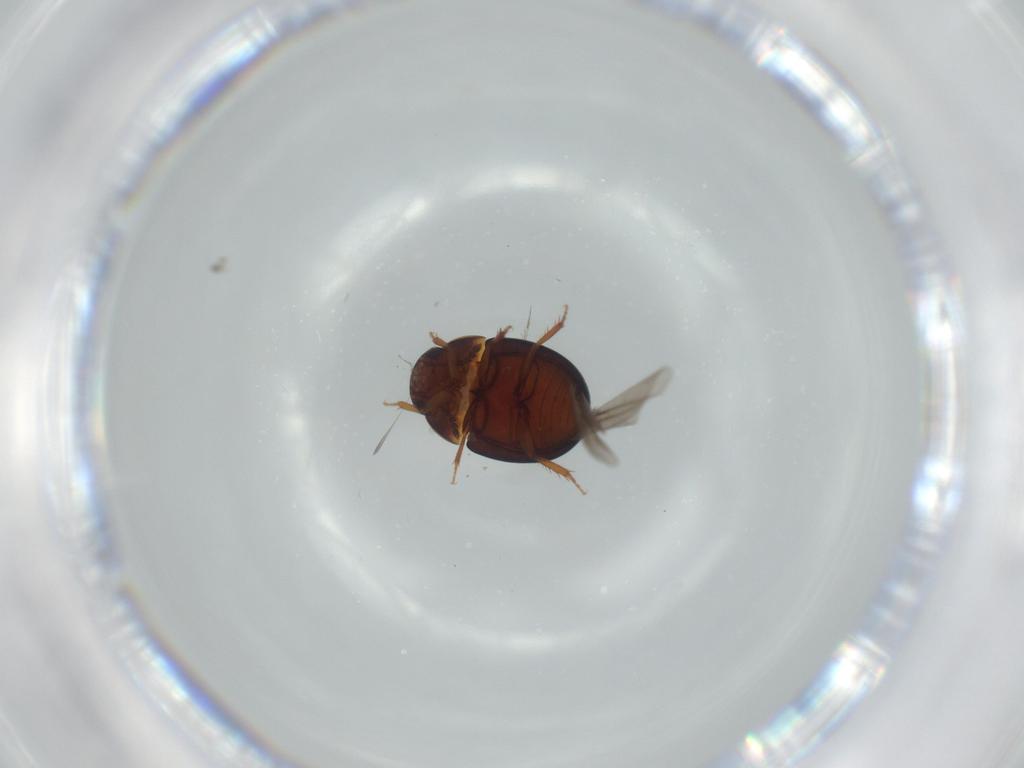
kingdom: Animalia
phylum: Arthropoda
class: Insecta
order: Coleoptera
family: Leiodidae
